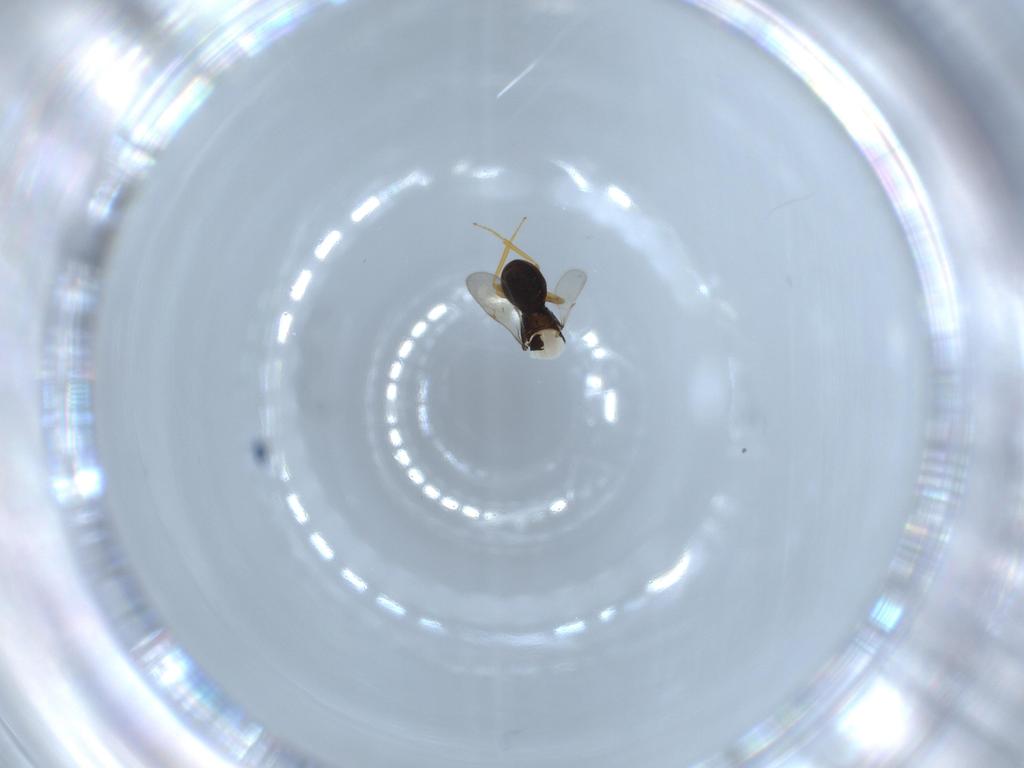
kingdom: Animalia
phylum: Arthropoda
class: Insecta
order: Hymenoptera
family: Scelionidae
